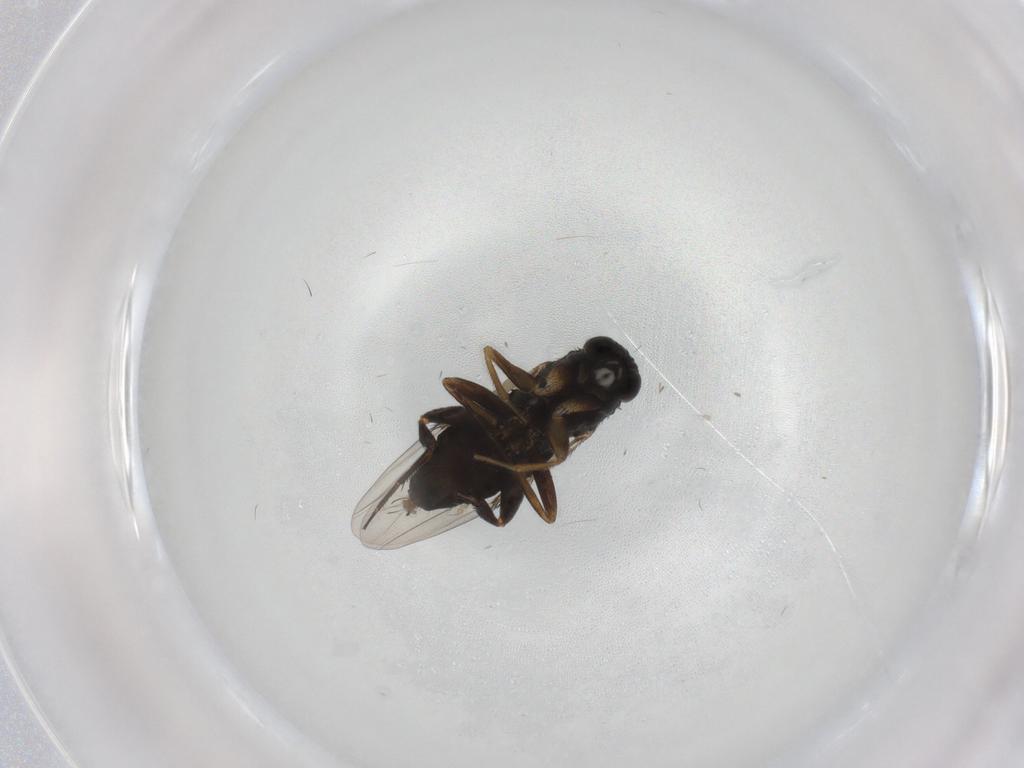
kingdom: Animalia
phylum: Arthropoda
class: Insecta
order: Diptera
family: Phoridae
